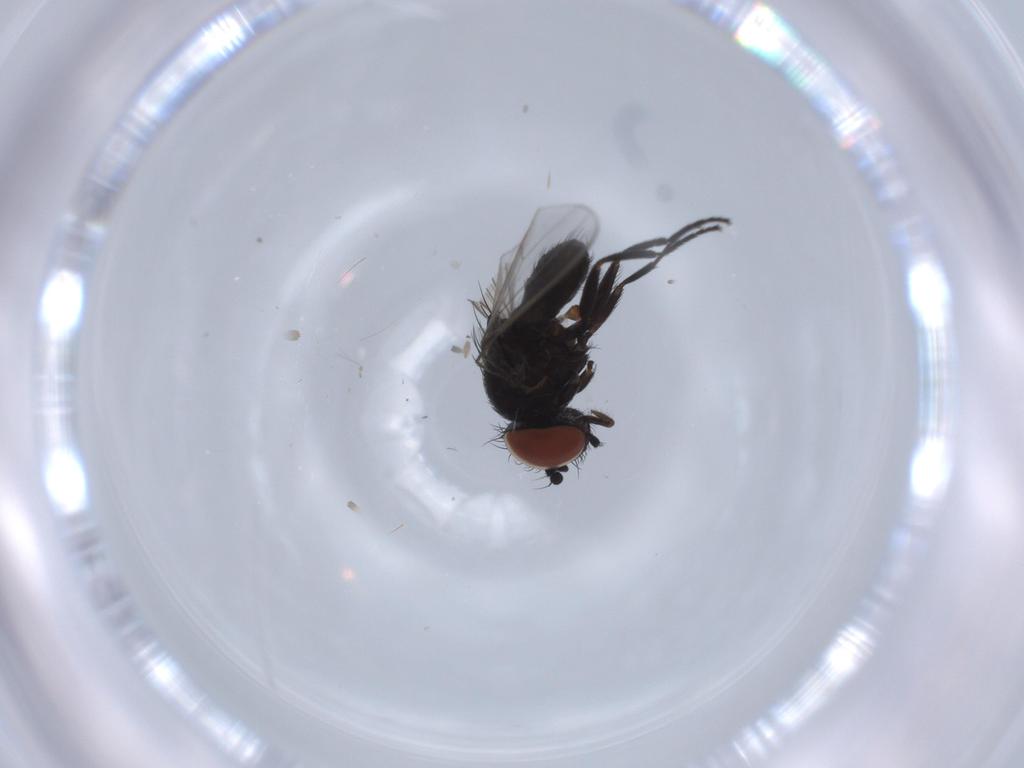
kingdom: Animalia
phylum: Arthropoda
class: Insecta
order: Diptera
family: Milichiidae
